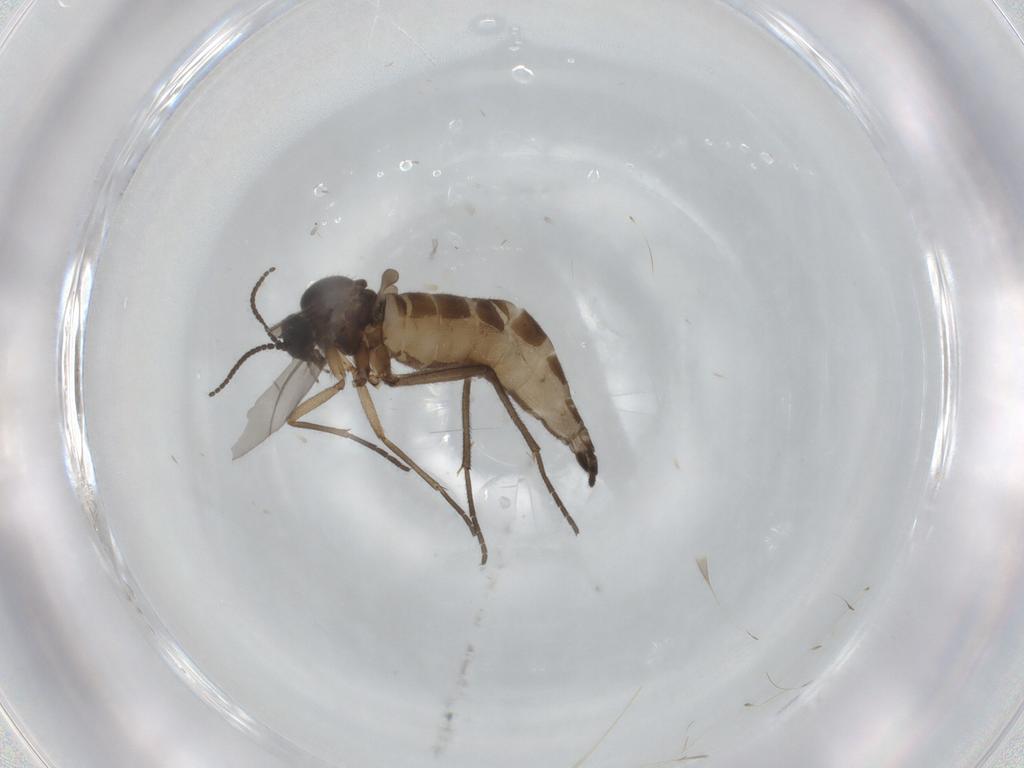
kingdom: Animalia
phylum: Arthropoda
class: Insecta
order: Diptera
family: Sciaridae
